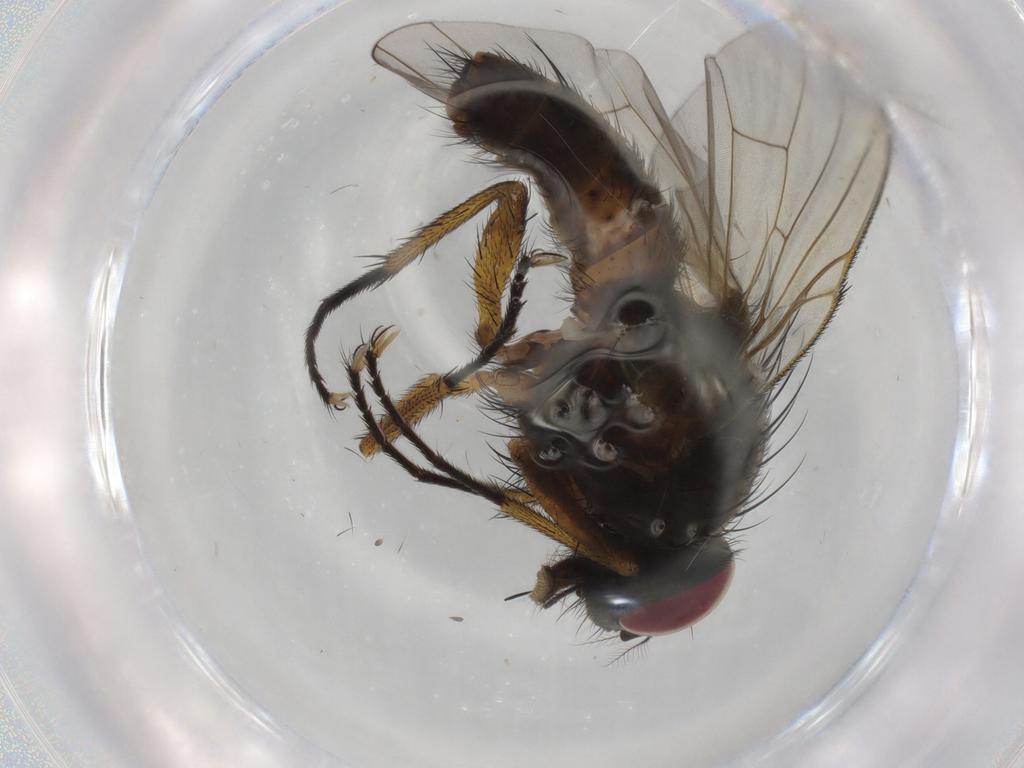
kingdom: Animalia
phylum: Arthropoda
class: Insecta
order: Diptera
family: Muscidae
